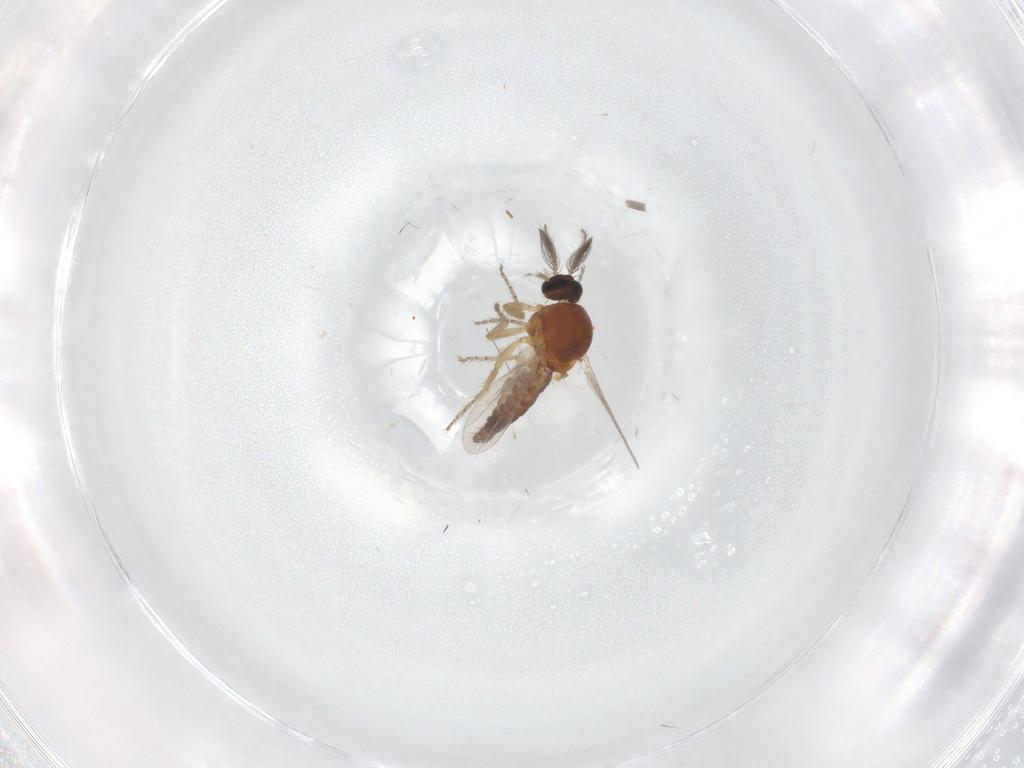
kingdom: Animalia
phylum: Arthropoda
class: Insecta
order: Diptera
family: Ceratopogonidae
